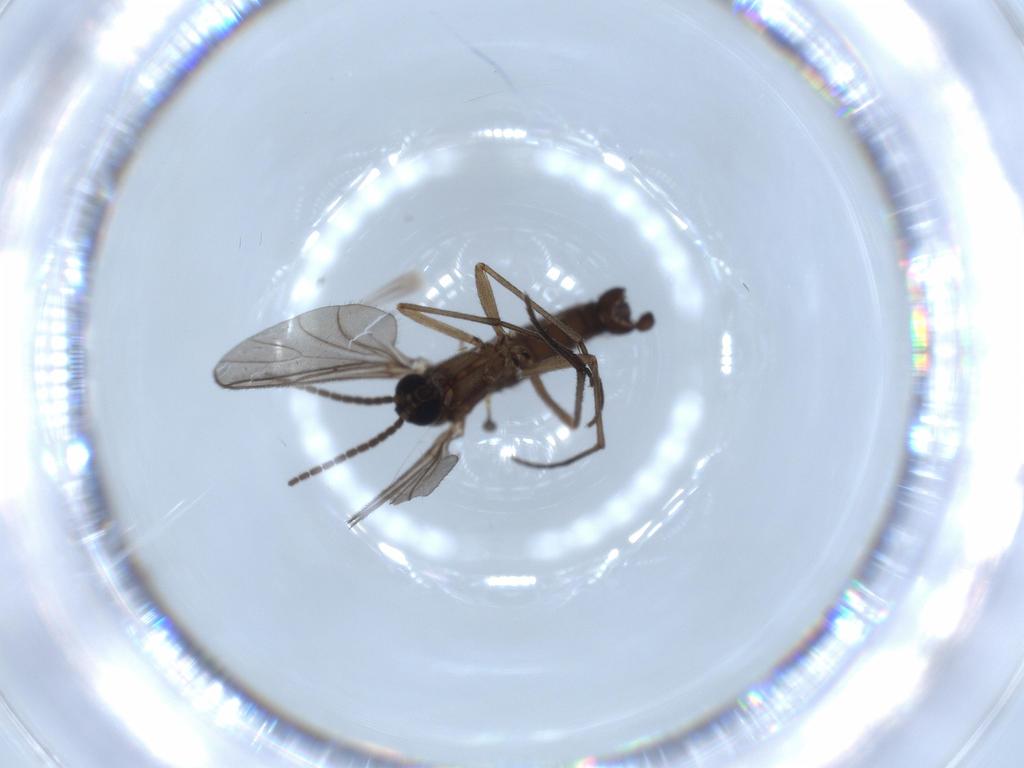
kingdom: Animalia
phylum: Arthropoda
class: Insecta
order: Diptera
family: Sciaridae
